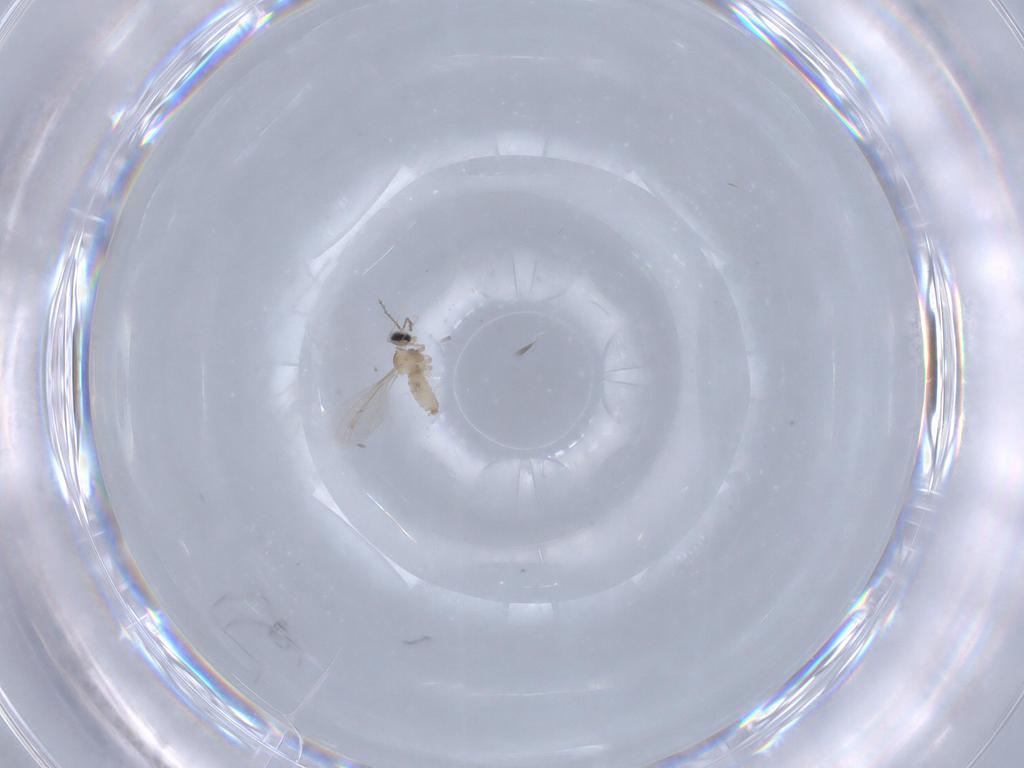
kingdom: Animalia
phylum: Arthropoda
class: Insecta
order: Diptera
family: Cecidomyiidae
